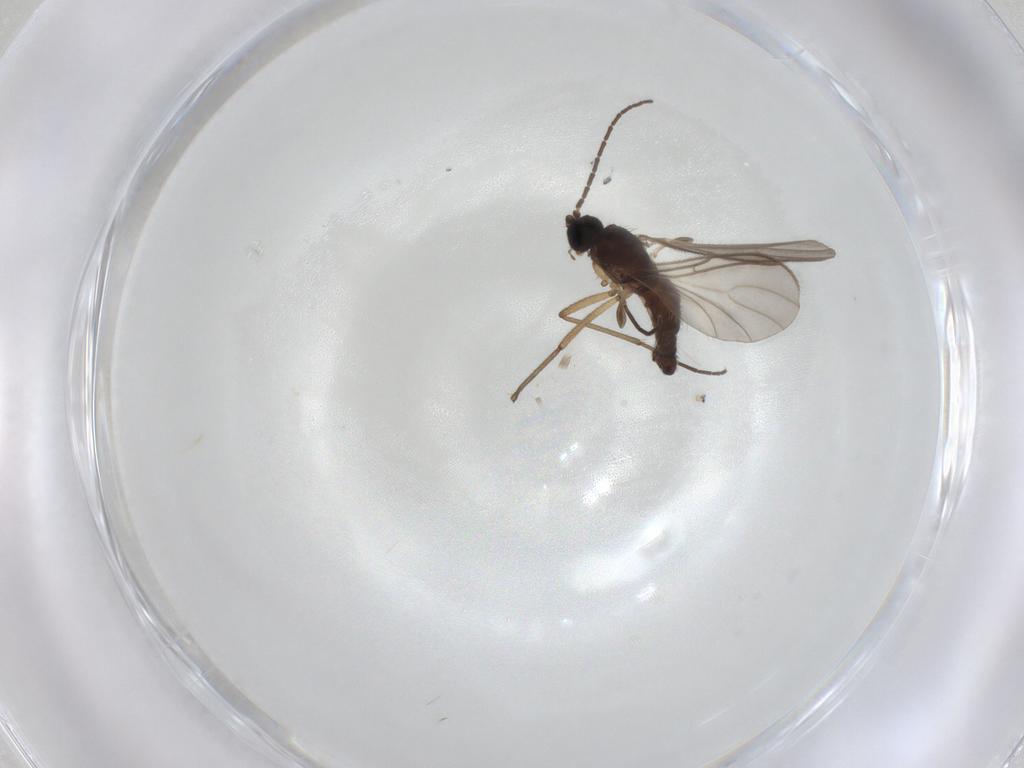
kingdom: Animalia
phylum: Arthropoda
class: Insecta
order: Diptera
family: Sciaridae
